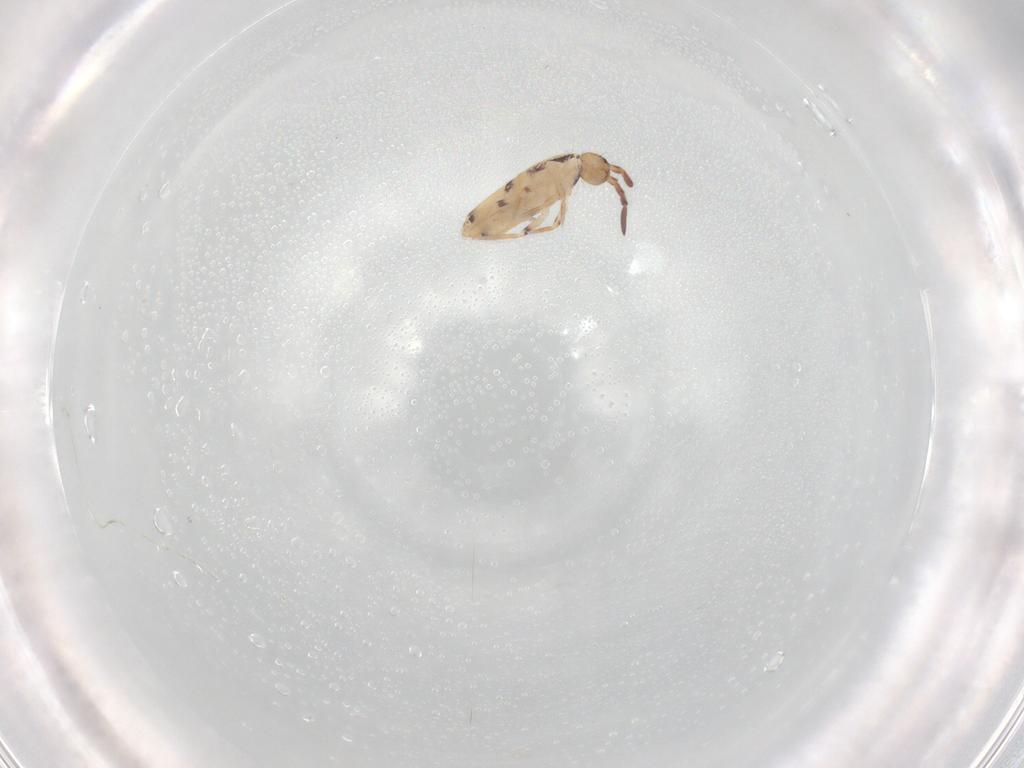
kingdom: Animalia
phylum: Arthropoda
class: Collembola
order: Entomobryomorpha
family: Entomobryidae
